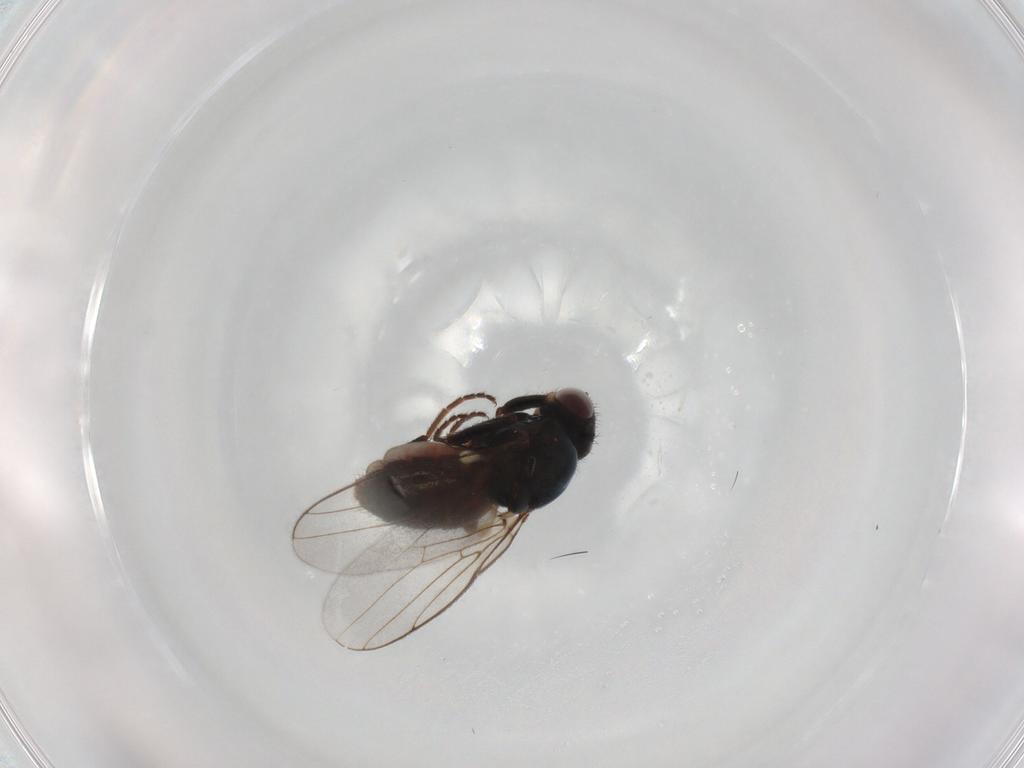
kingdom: Animalia
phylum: Arthropoda
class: Insecta
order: Diptera
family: Chloropidae
